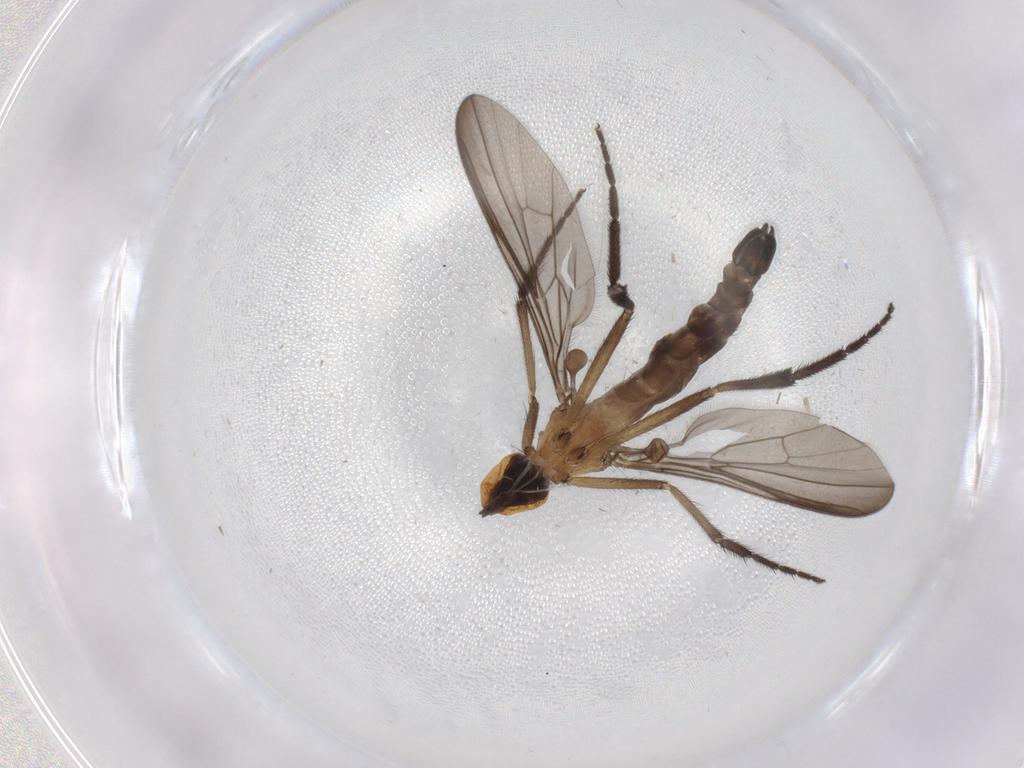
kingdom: Animalia
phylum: Arthropoda
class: Insecta
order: Diptera
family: Empididae
